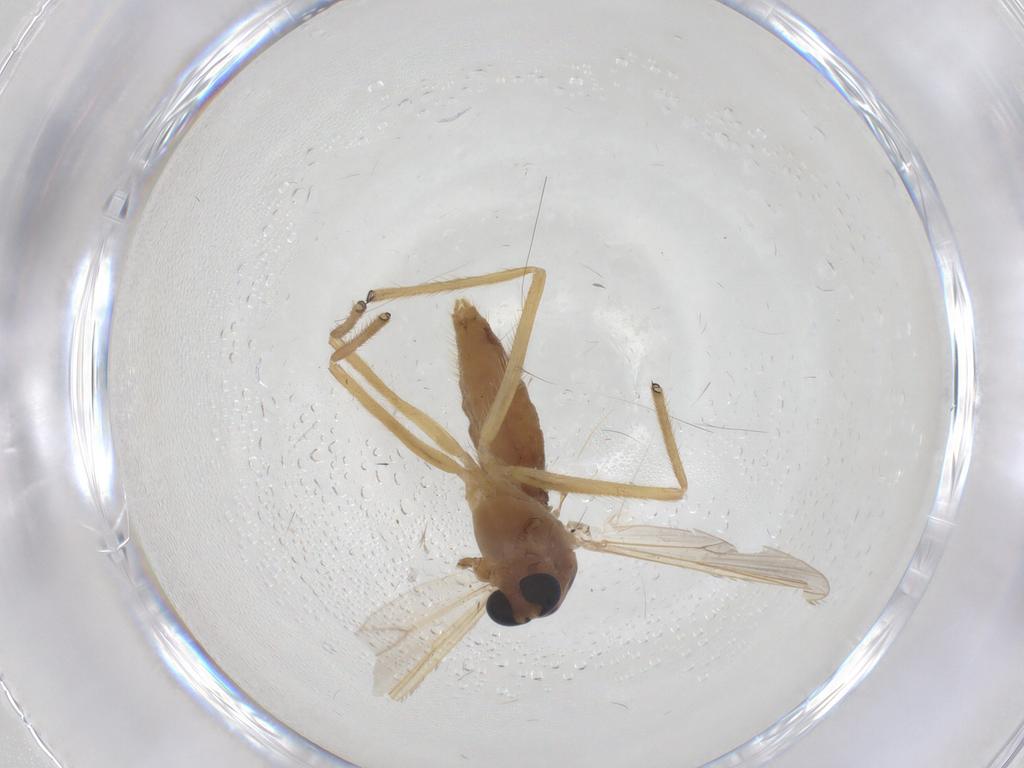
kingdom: Animalia
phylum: Arthropoda
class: Insecta
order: Diptera
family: Chironomidae
